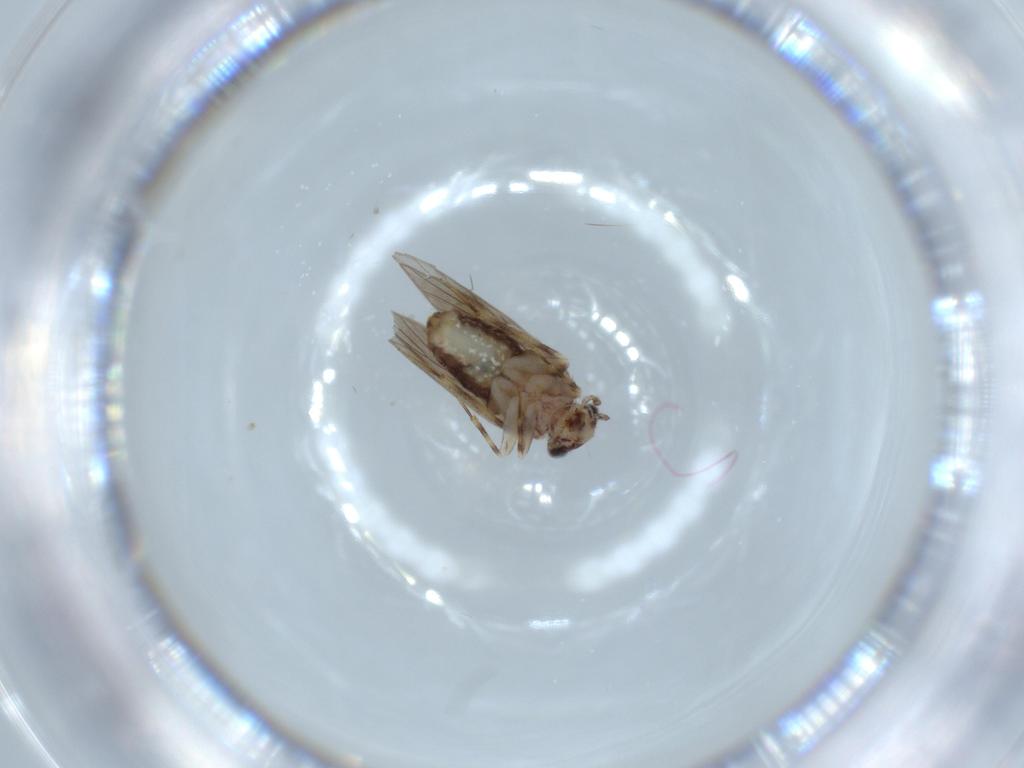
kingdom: Animalia
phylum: Arthropoda
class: Insecta
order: Psocodea
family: Lepidopsocidae
